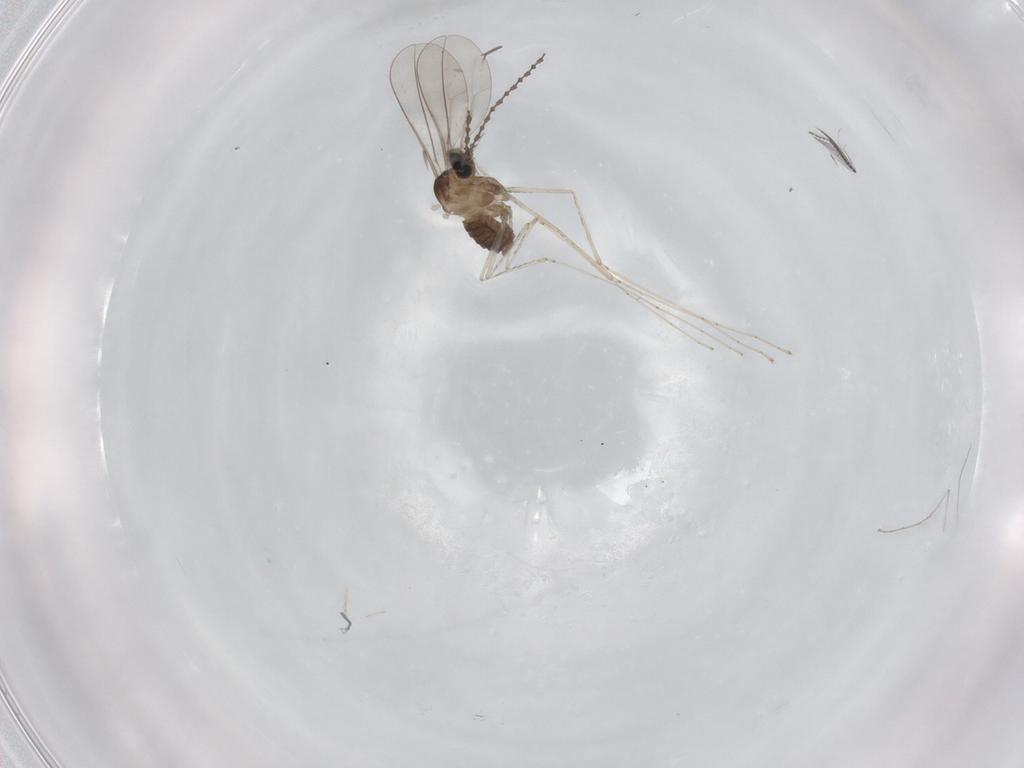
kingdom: Animalia
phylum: Arthropoda
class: Insecta
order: Diptera
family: Cecidomyiidae
